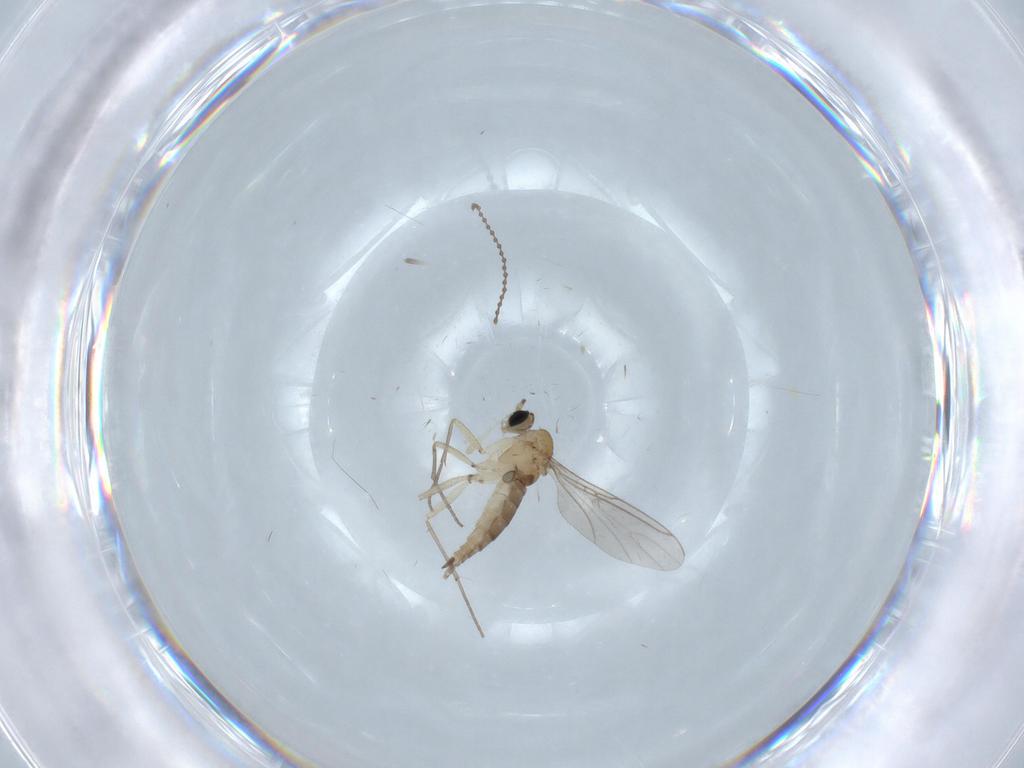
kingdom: Animalia
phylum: Arthropoda
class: Insecta
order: Diptera
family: Sciaridae
